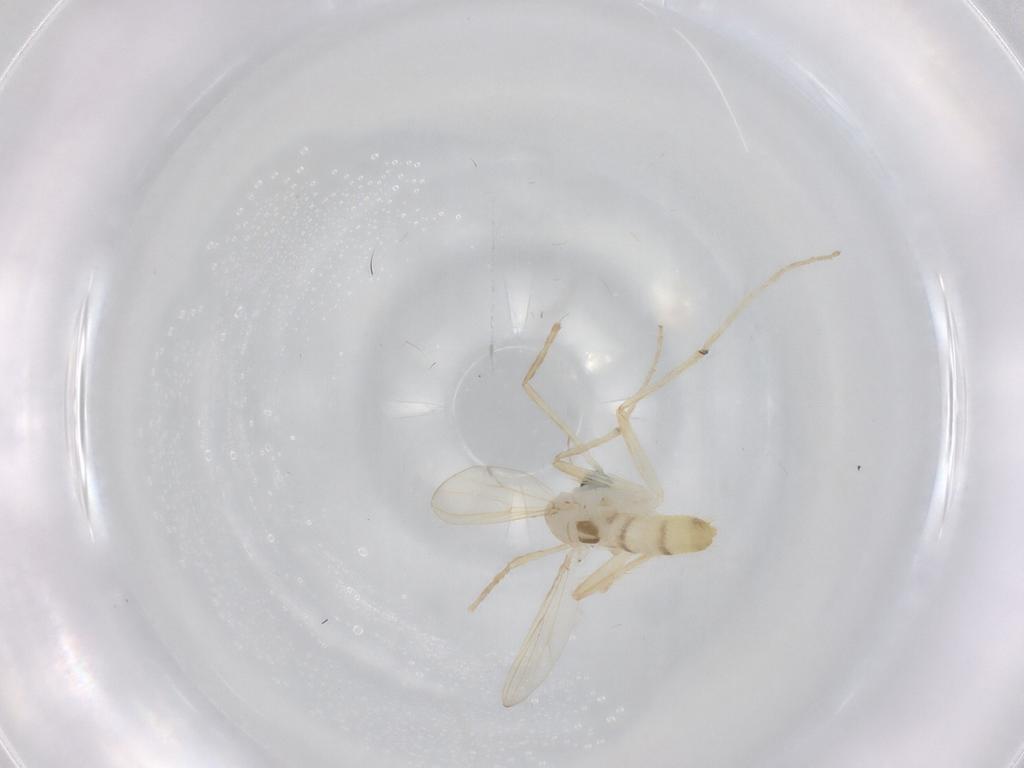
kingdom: Animalia
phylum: Arthropoda
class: Insecta
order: Diptera
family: Chironomidae
